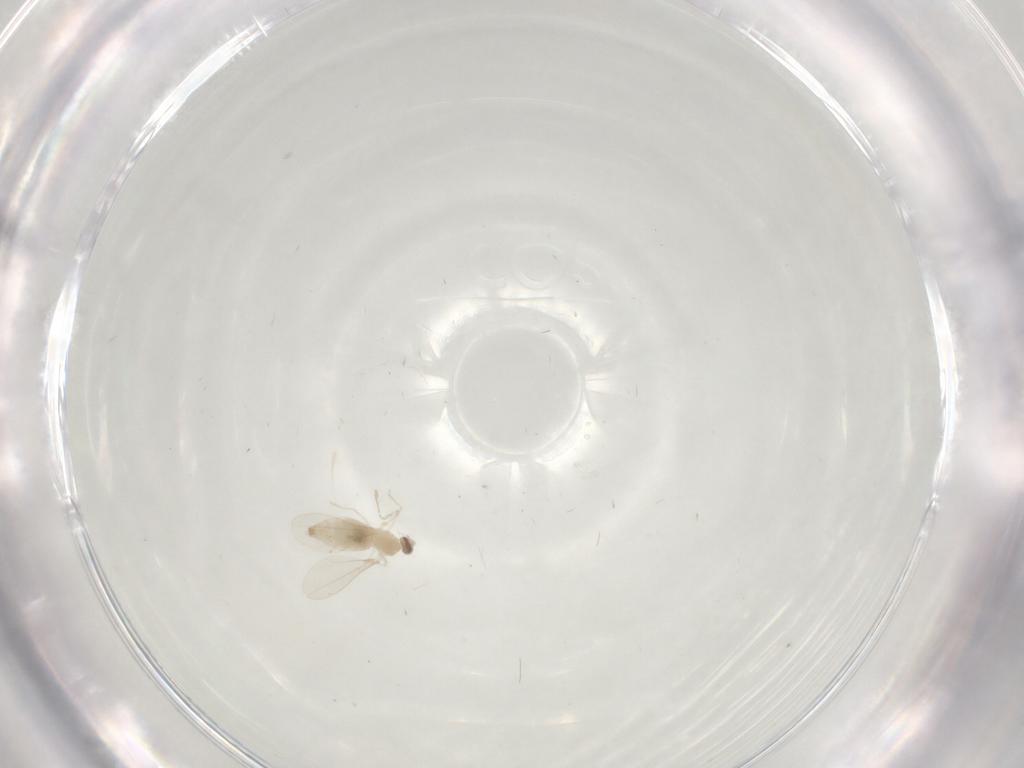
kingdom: Animalia
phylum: Arthropoda
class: Insecta
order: Diptera
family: Cecidomyiidae
